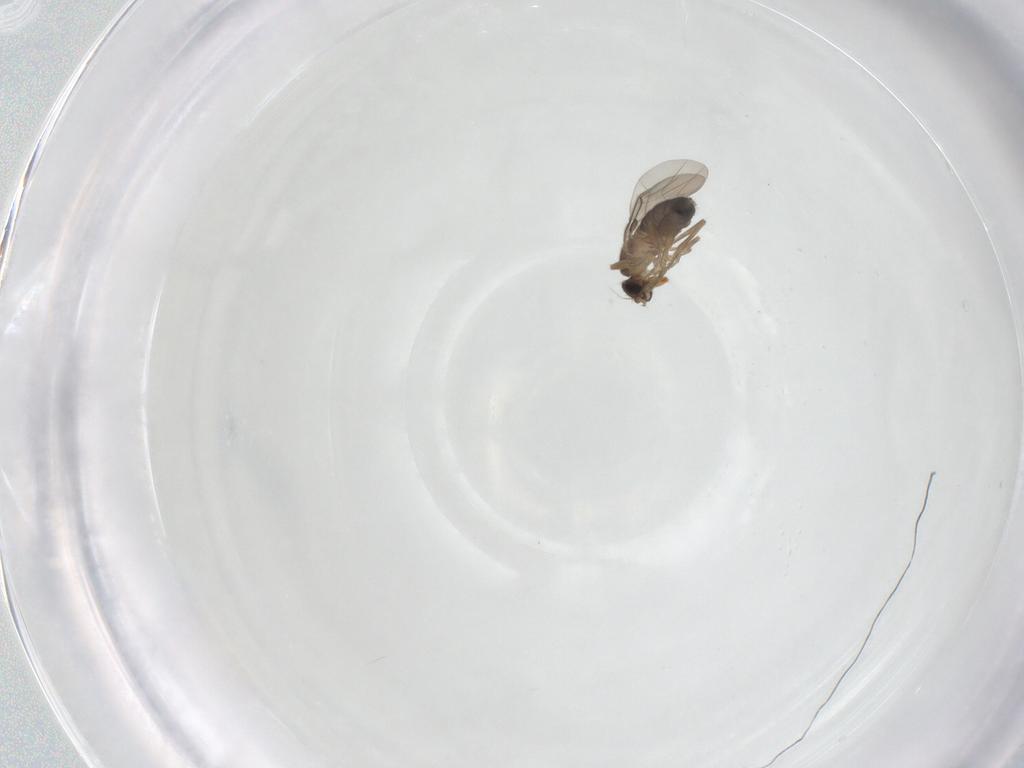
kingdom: Animalia
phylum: Arthropoda
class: Insecta
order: Diptera
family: Phoridae
